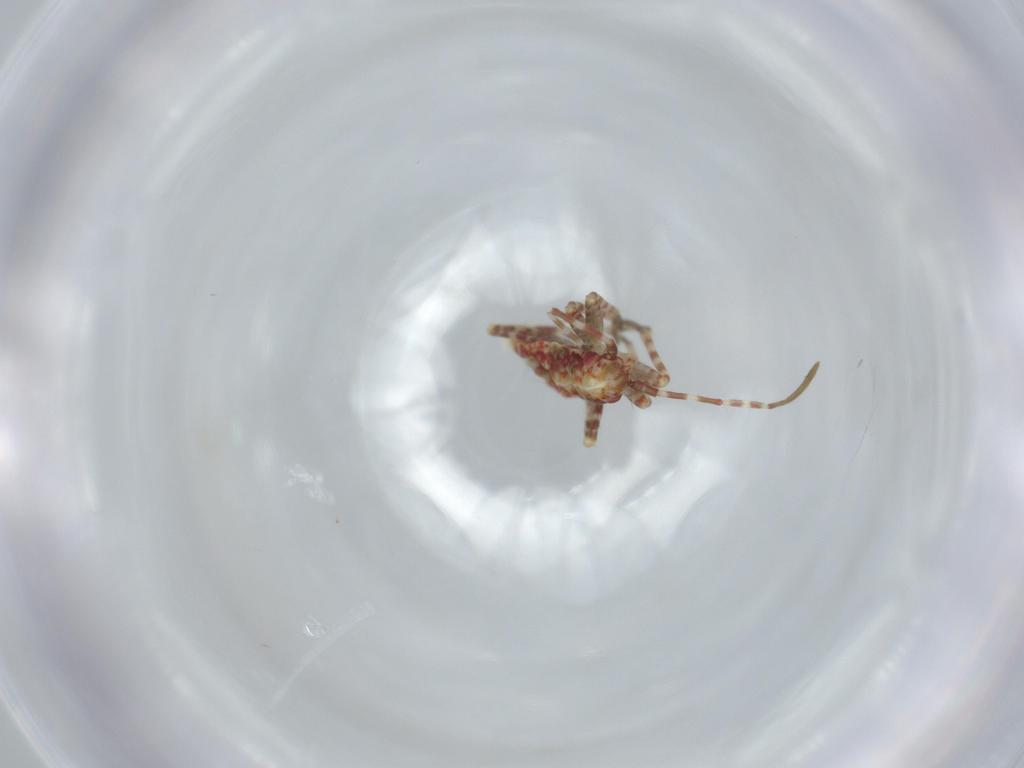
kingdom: Animalia
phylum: Arthropoda
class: Insecta
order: Hemiptera
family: Miridae
